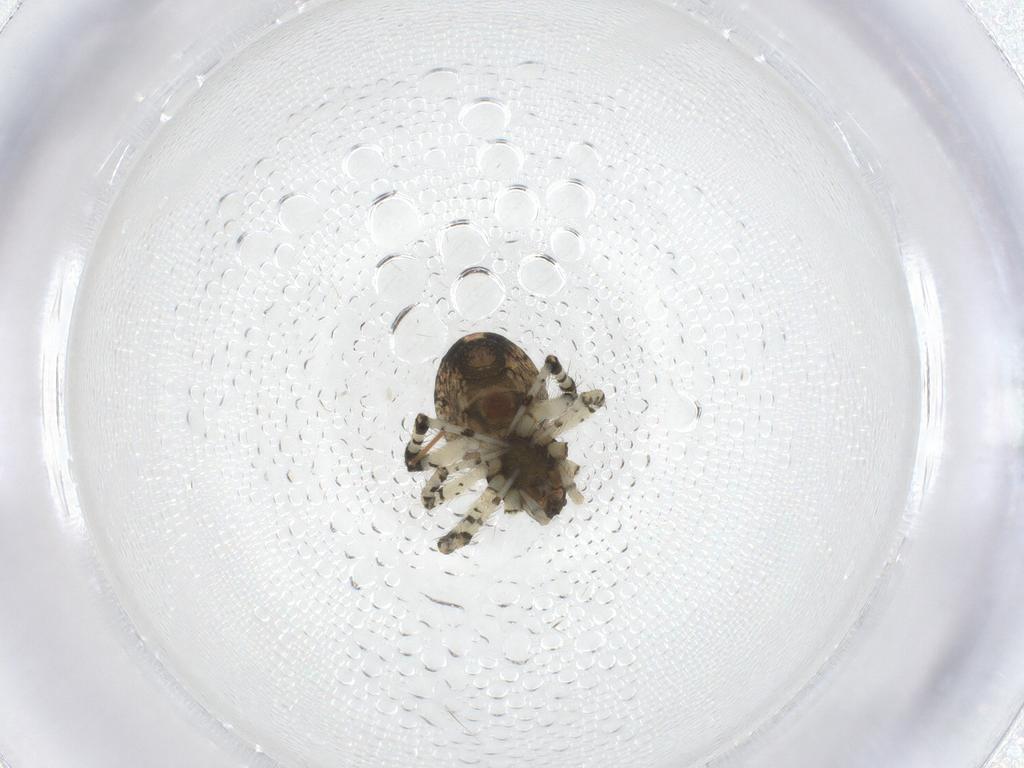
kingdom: Animalia
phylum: Arthropoda
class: Arachnida
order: Araneae
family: Theridiidae
